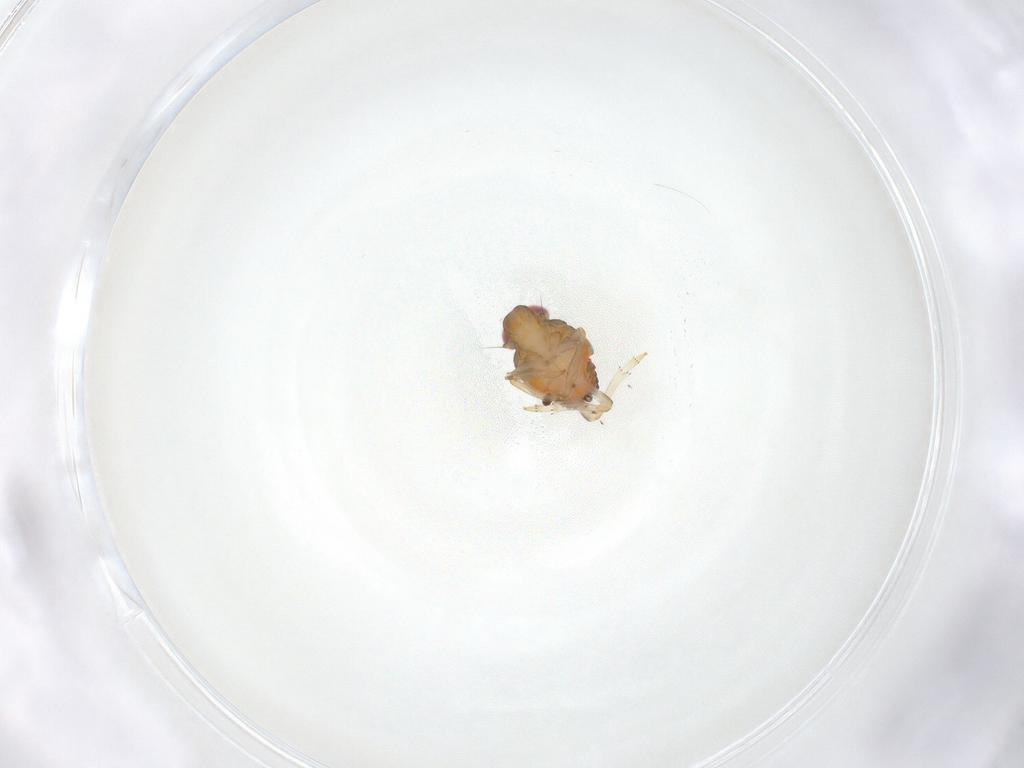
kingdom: Animalia
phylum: Arthropoda
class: Insecta
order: Hemiptera
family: Issidae
